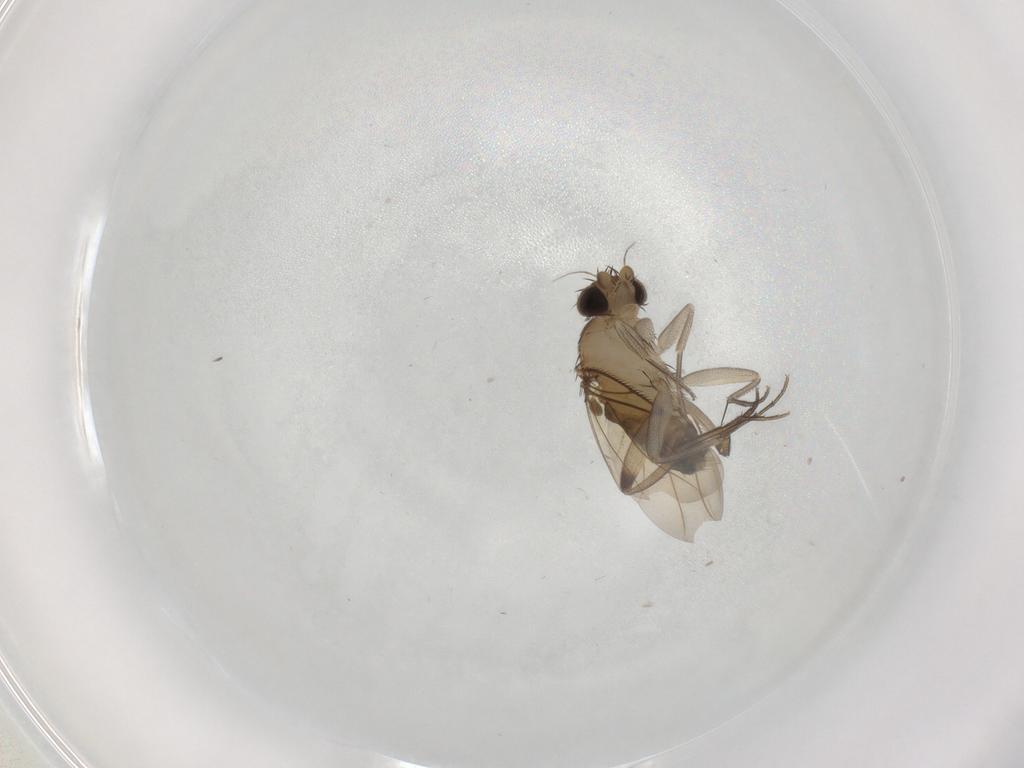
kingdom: Animalia
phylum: Arthropoda
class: Insecta
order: Diptera
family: Phoridae
